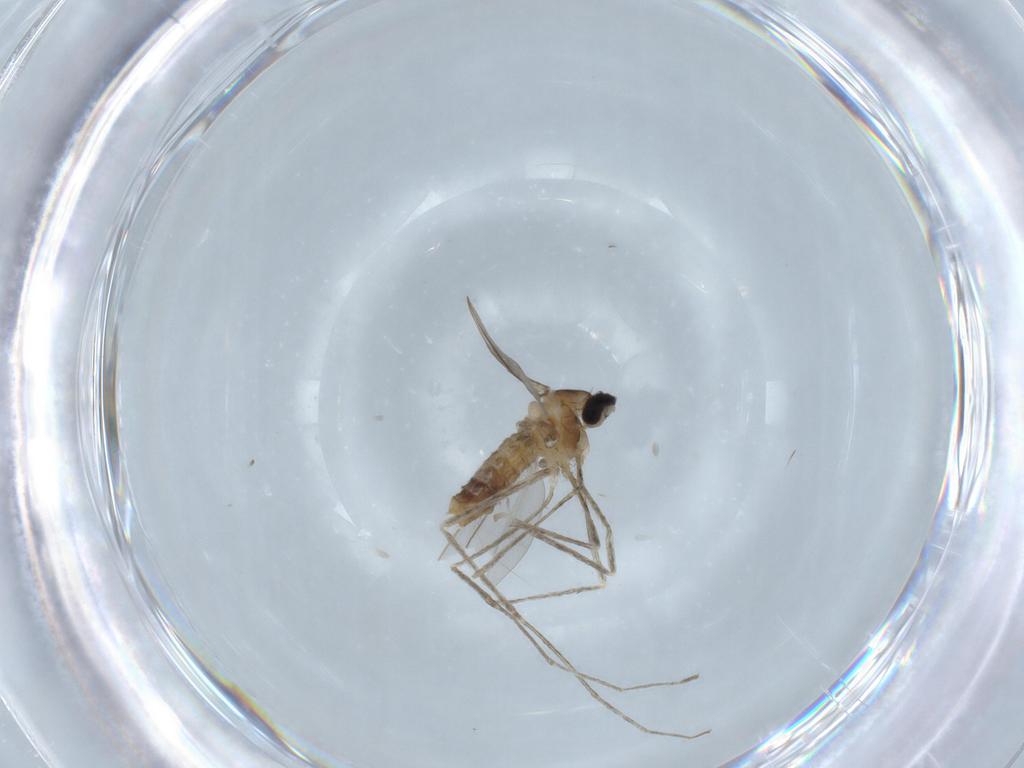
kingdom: Animalia
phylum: Arthropoda
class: Insecta
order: Diptera
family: Cecidomyiidae
